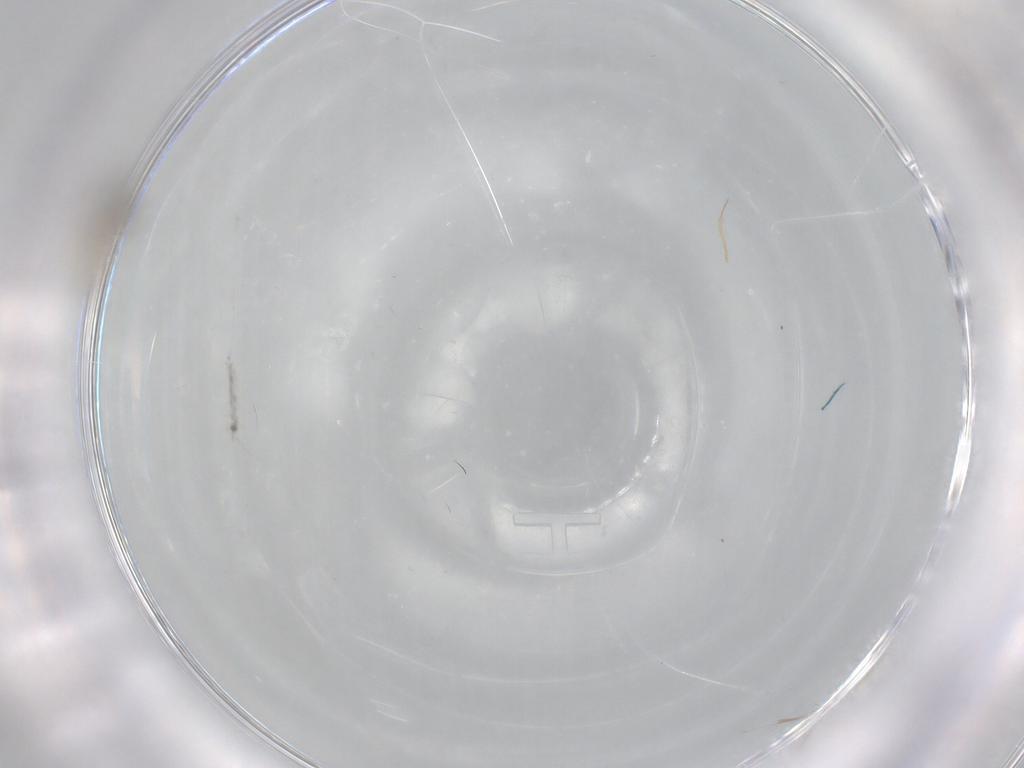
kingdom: Animalia
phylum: Arthropoda
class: Insecta
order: Diptera
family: Cecidomyiidae
